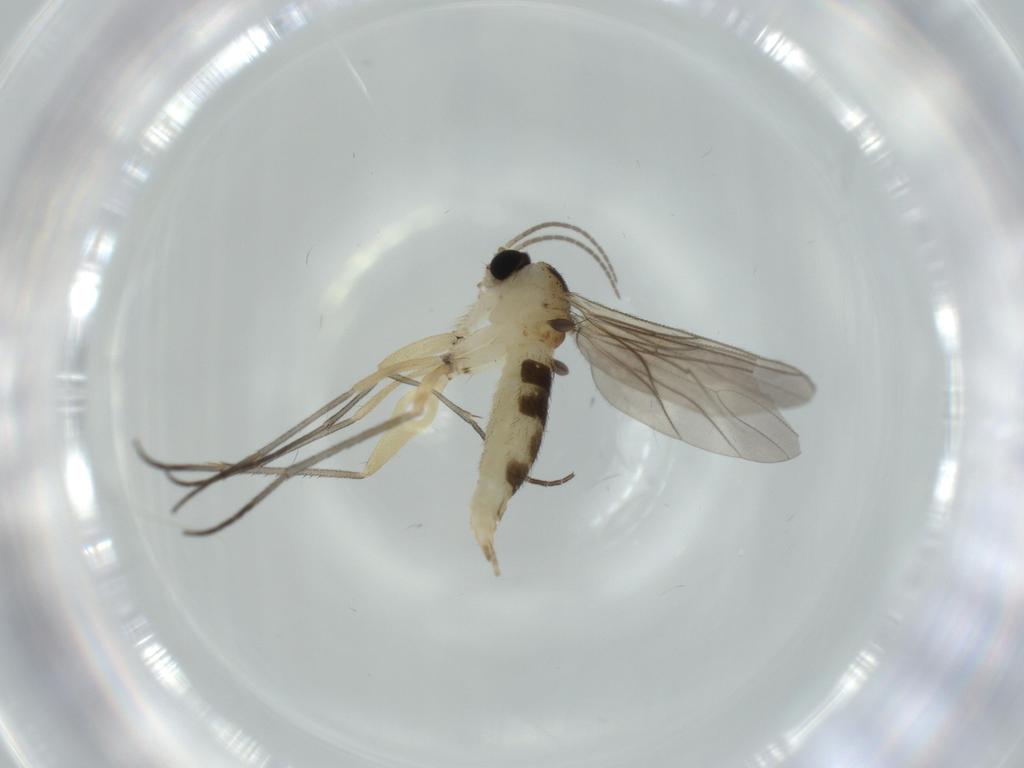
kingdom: Animalia
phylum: Arthropoda
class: Insecta
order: Diptera
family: Sciaridae
